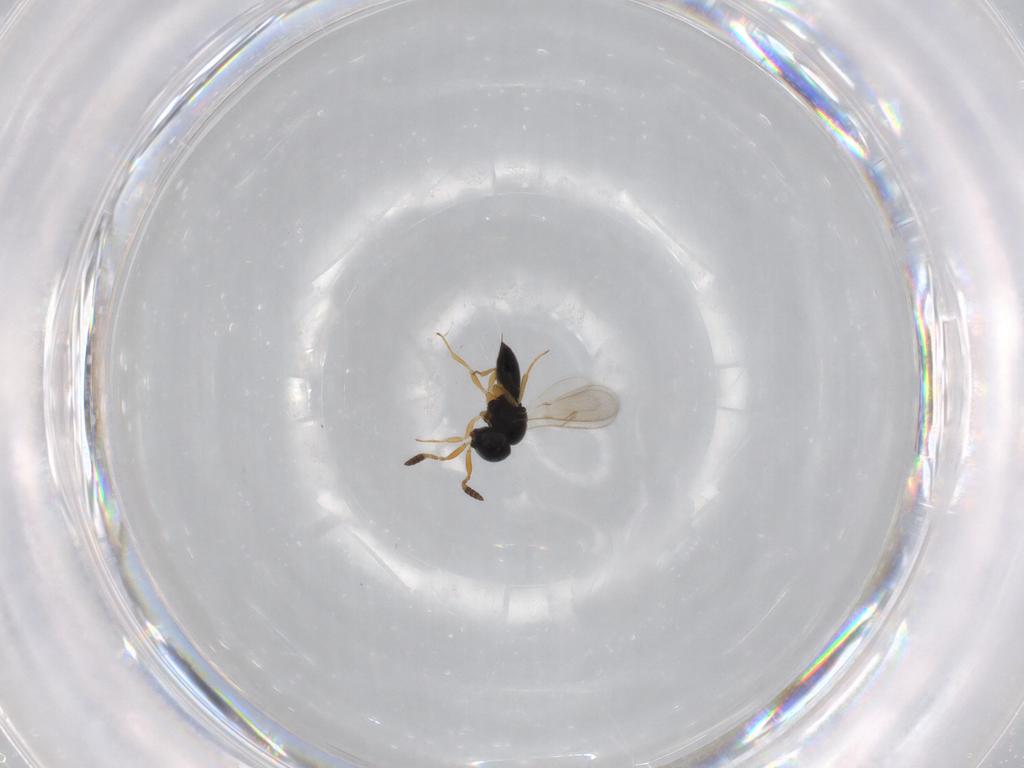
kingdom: Animalia
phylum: Arthropoda
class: Insecta
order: Hymenoptera
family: Scelionidae
